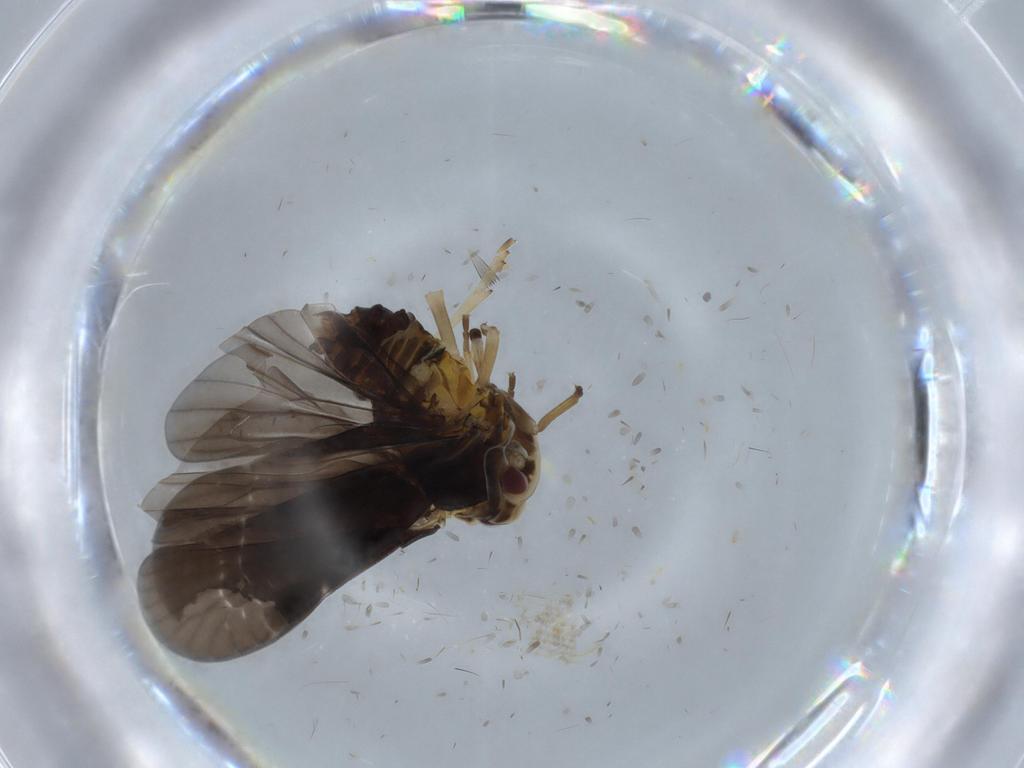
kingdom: Animalia
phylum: Arthropoda
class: Insecta
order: Hemiptera
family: Derbidae
